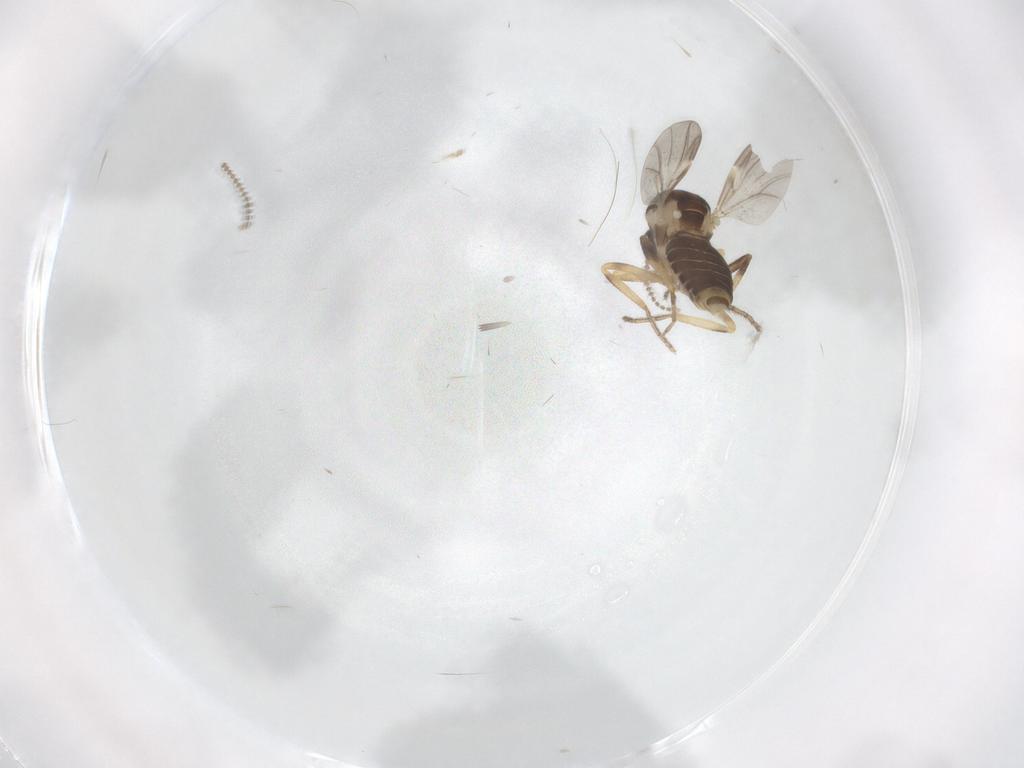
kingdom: Animalia
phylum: Arthropoda
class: Insecta
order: Diptera
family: Ceratopogonidae
